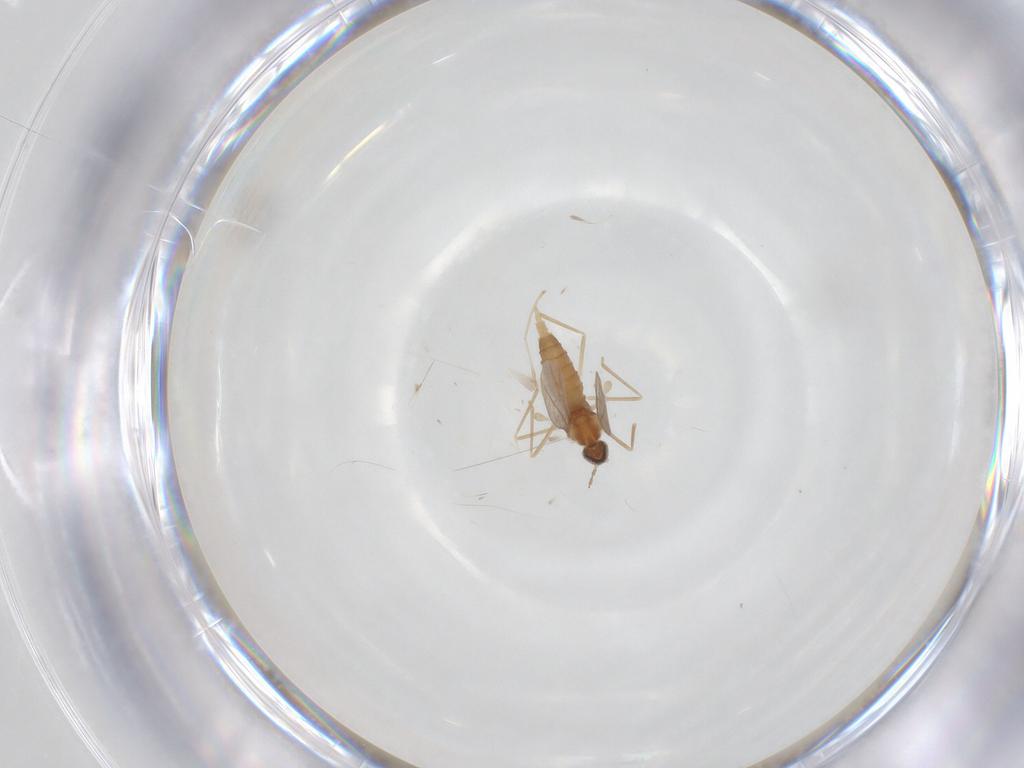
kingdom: Animalia
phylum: Arthropoda
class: Insecta
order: Diptera
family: Cecidomyiidae
